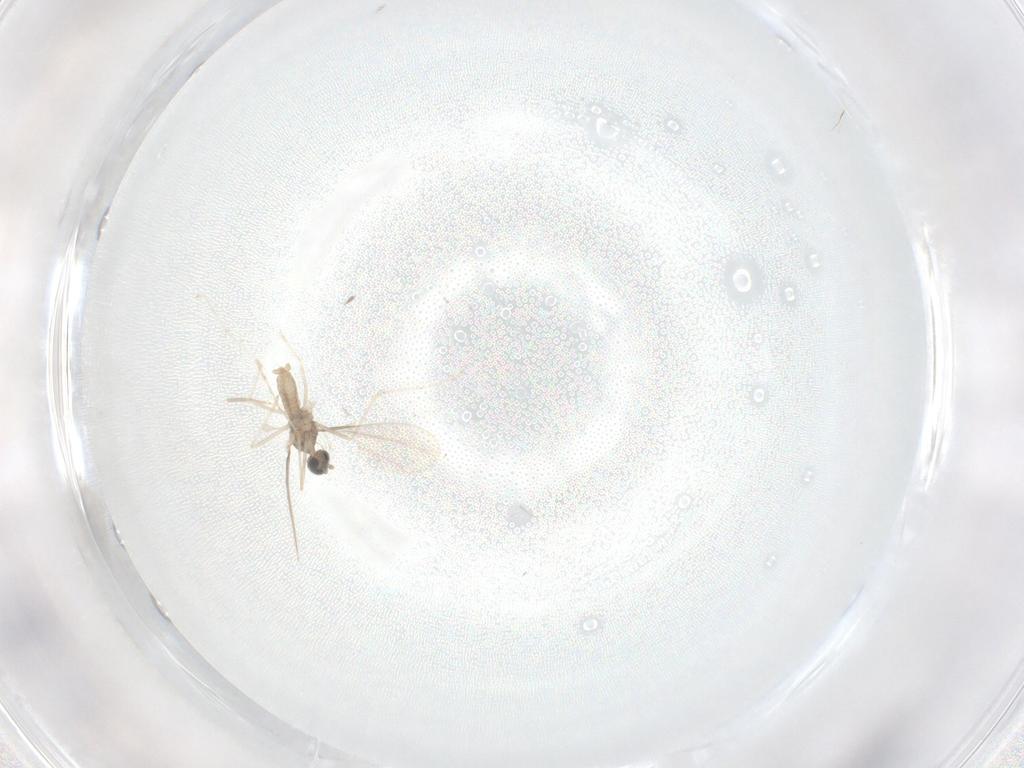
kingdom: Animalia
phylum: Arthropoda
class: Insecta
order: Diptera
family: Cecidomyiidae
